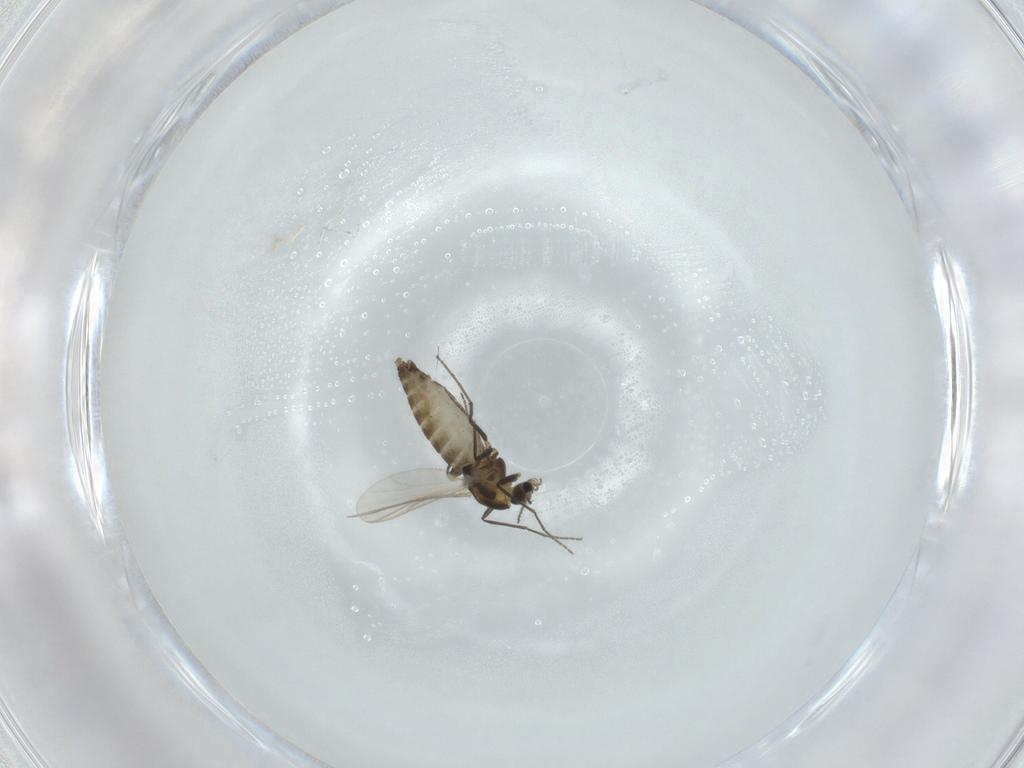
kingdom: Animalia
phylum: Arthropoda
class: Insecta
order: Diptera
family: Chironomidae
